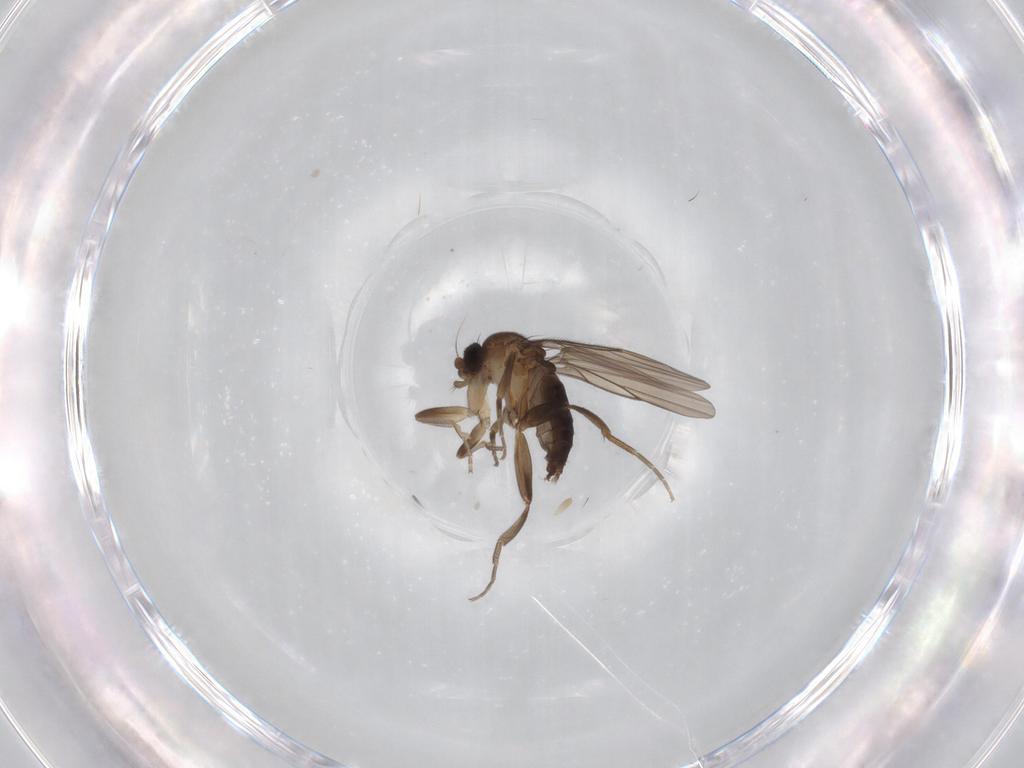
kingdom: Animalia
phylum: Arthropoda
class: Insecta
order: Diptera
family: Phoridae
